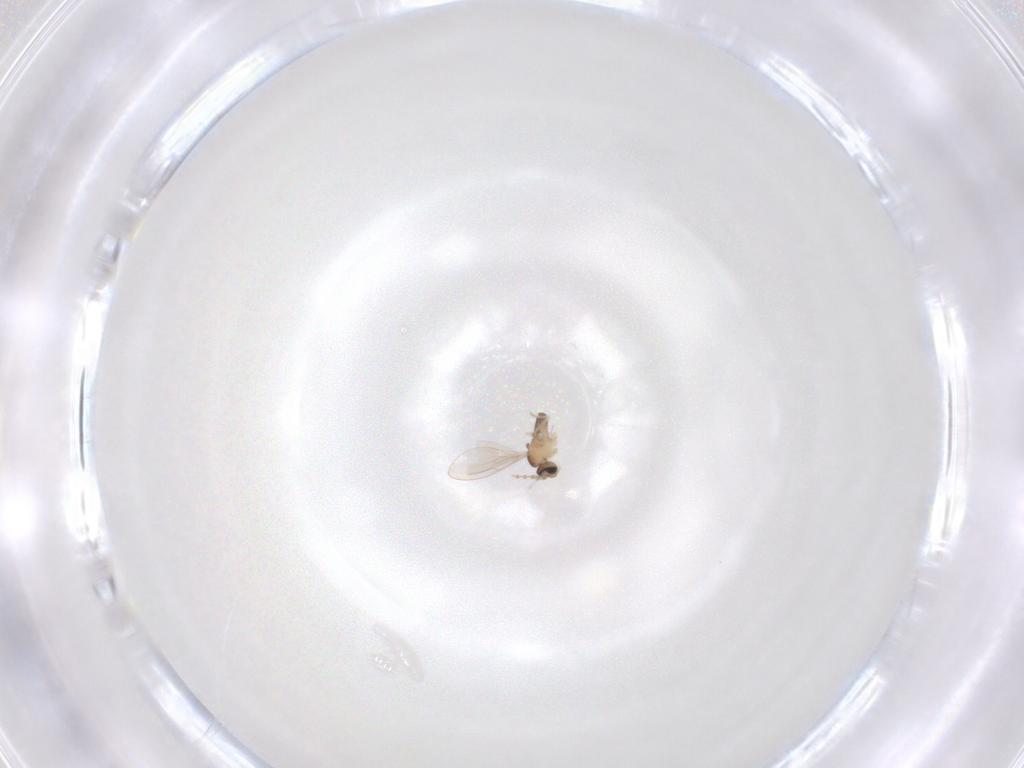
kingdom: Animalia
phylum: Arthropoda
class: Insecta
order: Diptera
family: Cecidomyiidae
